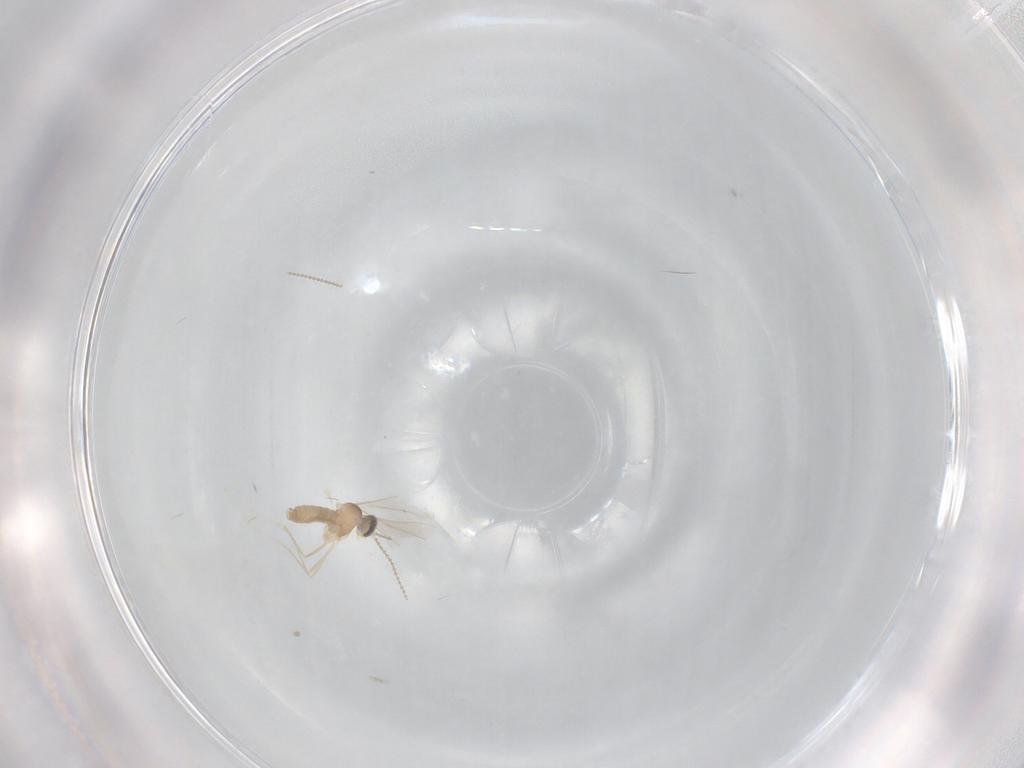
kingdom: Animalia
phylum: Arthropoda
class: Insecta
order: Diptera
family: Cecidomyiidae
